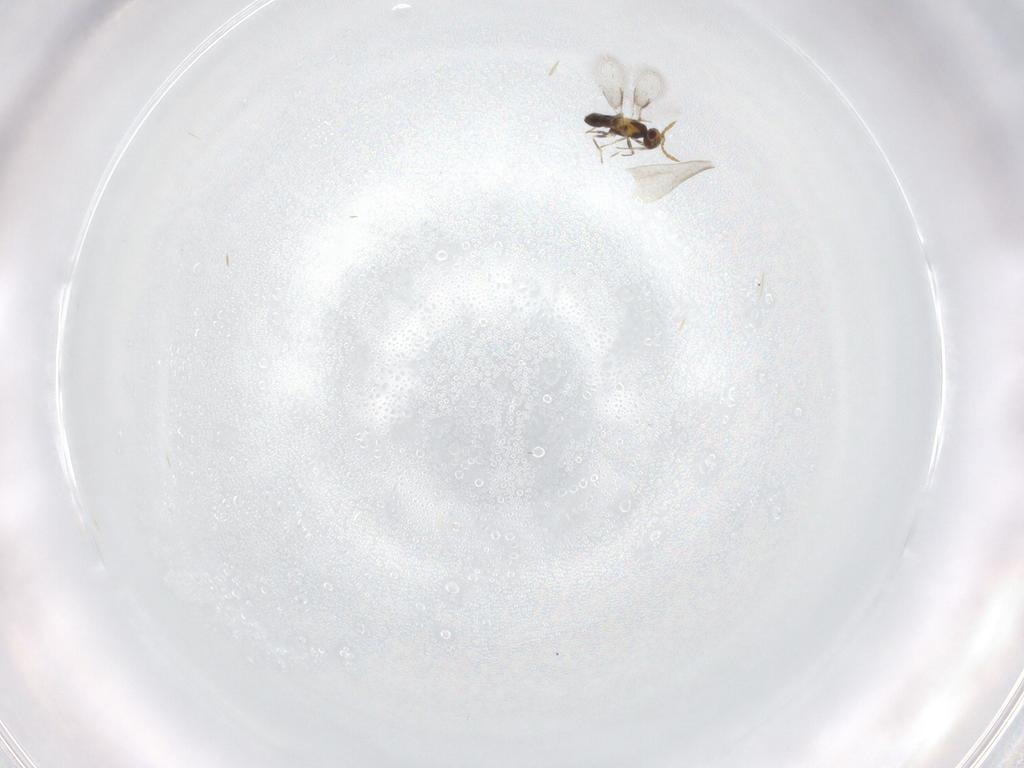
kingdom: Animalia
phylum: Arthropoda
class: Insecta
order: Hymenoptera
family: Aphelinidae
